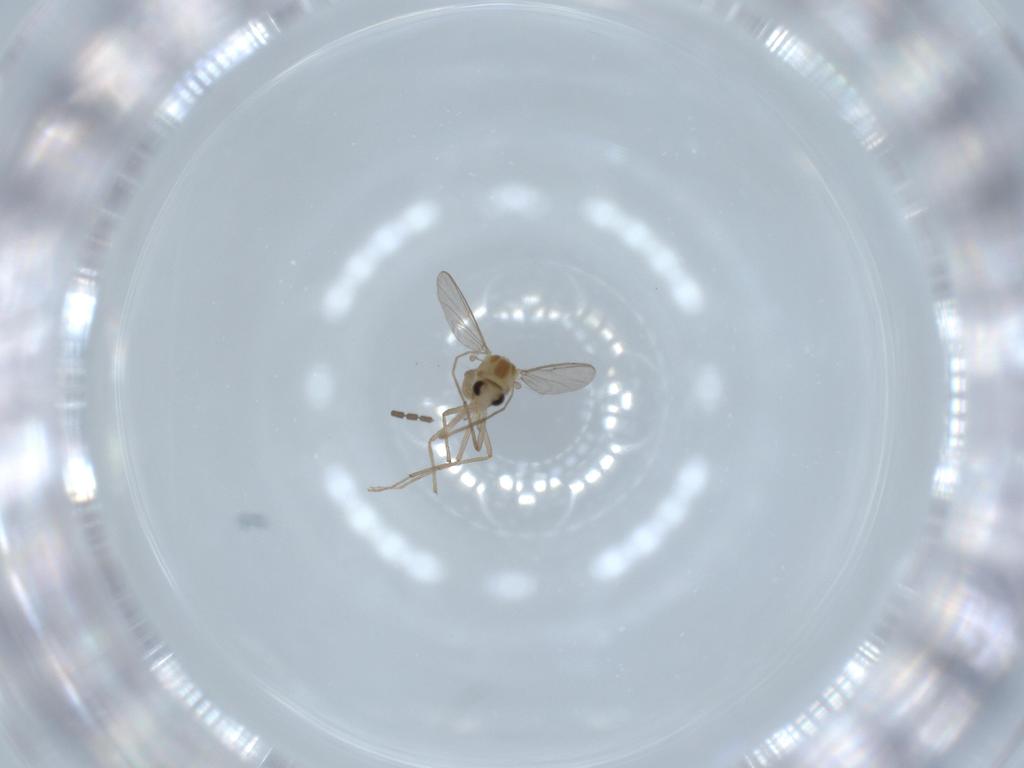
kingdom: Animalia
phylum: Arthropoda
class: Insecta
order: Diptera
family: Chironomidae
